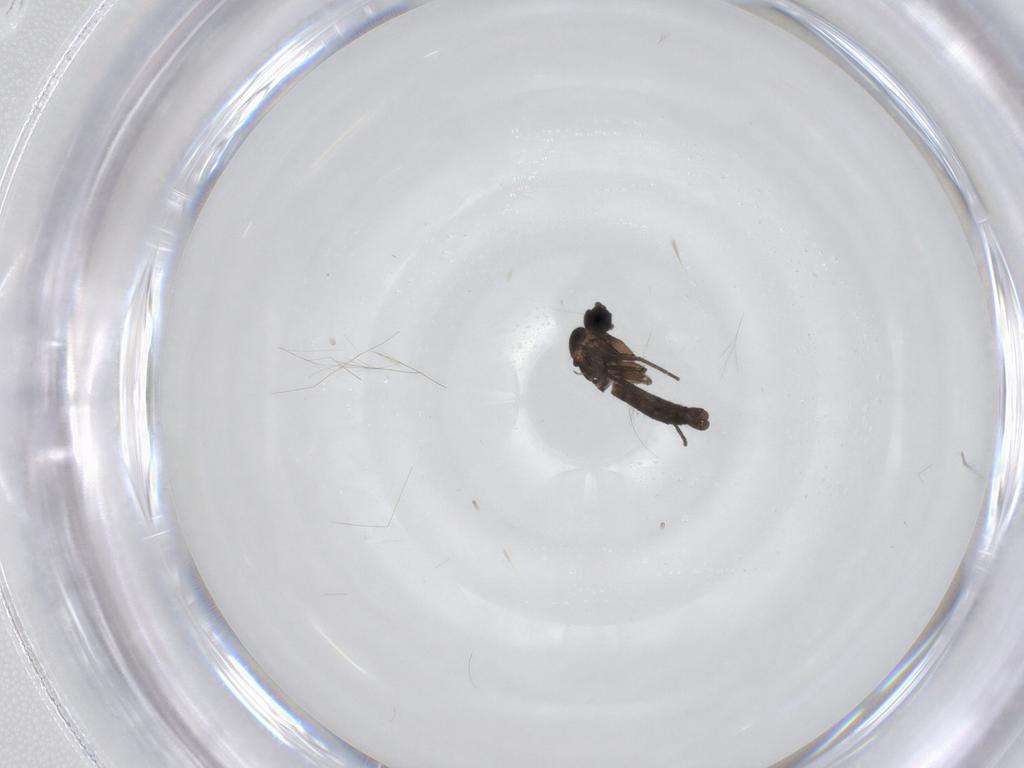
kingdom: Animalia
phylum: Arthropoda
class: Insecta
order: Diptera
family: Sciaridae
